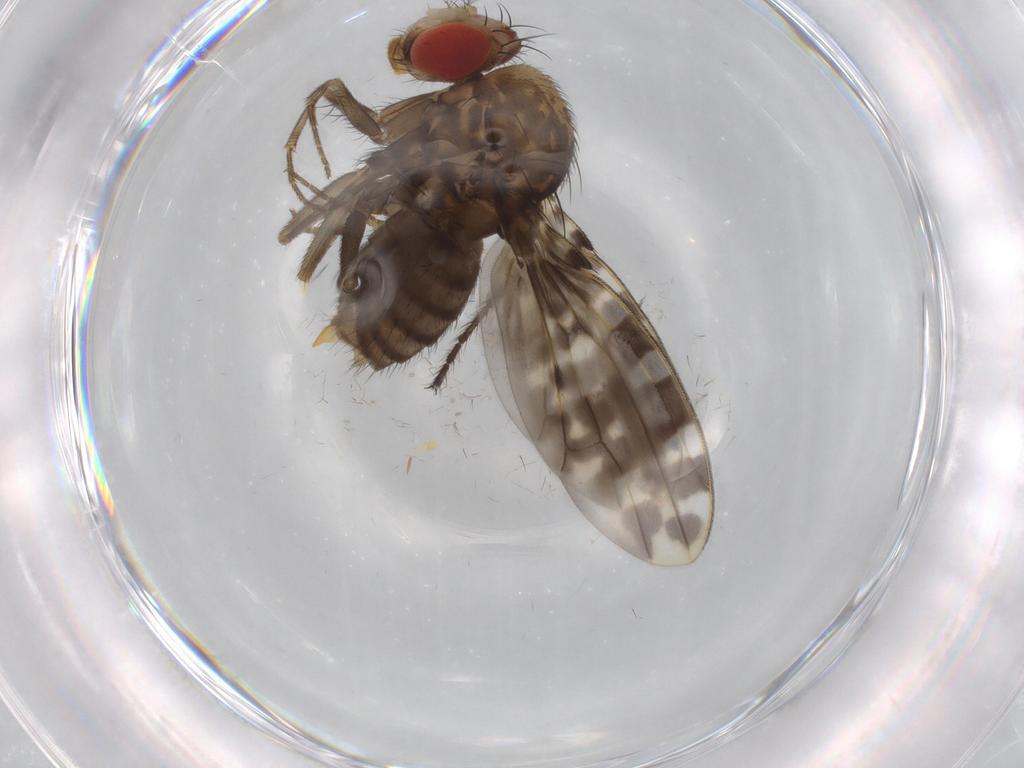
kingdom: Animalia
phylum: Arthropoda
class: Insecta
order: Diptera
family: Drosophilidae
